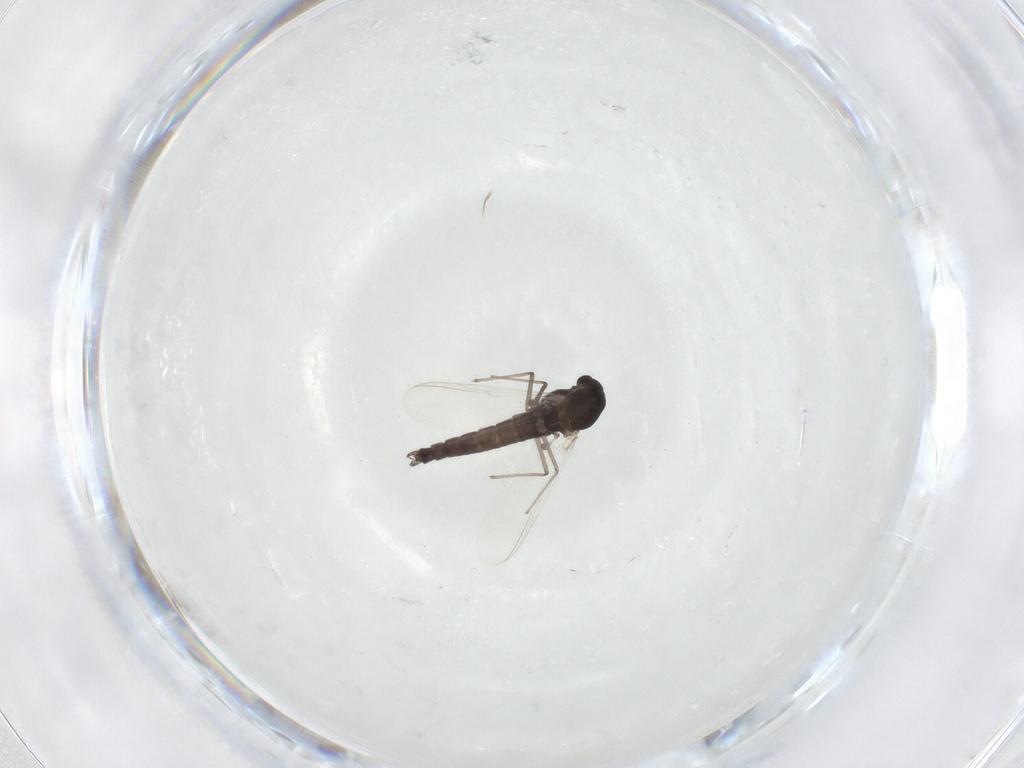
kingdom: Animalia
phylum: Arthropoda
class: Insecta
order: Diptera
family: Chironomidae
